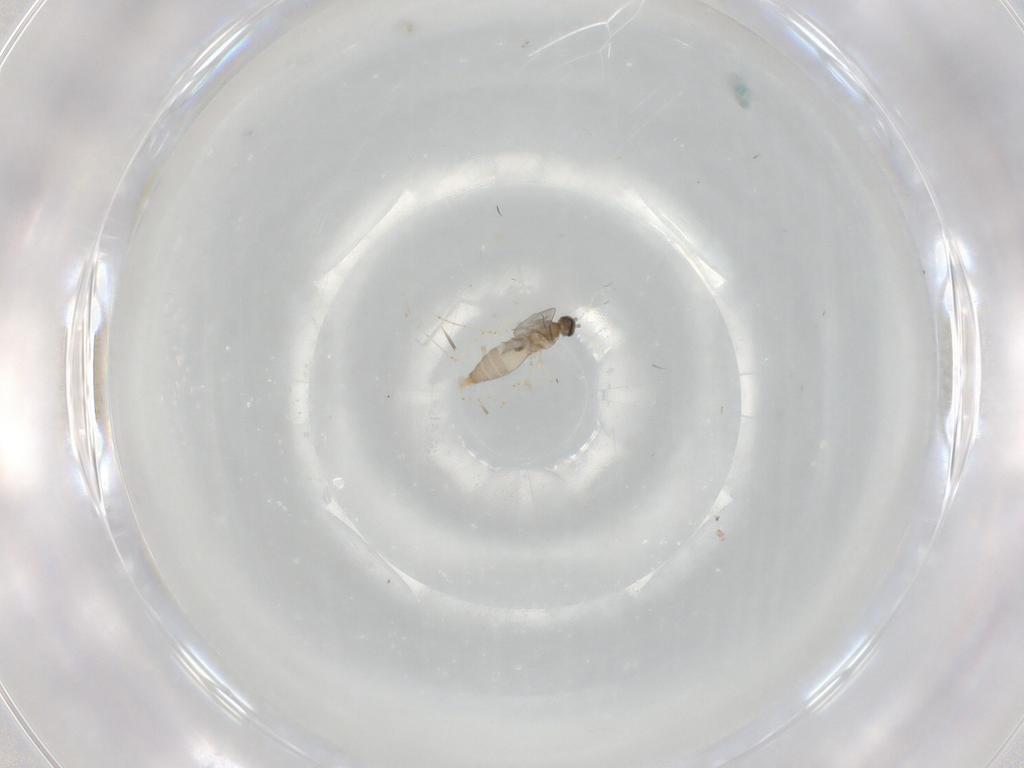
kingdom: Animalia
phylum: Arthropoda
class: Insecta
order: Diptera
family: Cecidomyiidae
